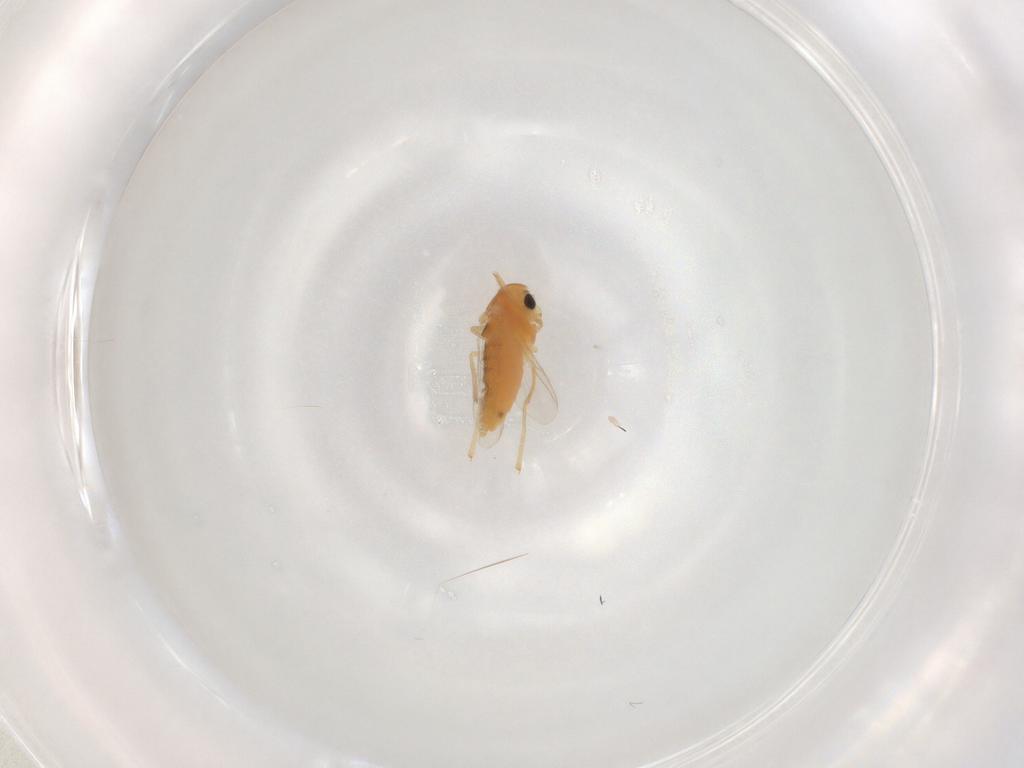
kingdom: Animalia
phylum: Arthropoda
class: Insecta
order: Diptera
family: Chironomidae
